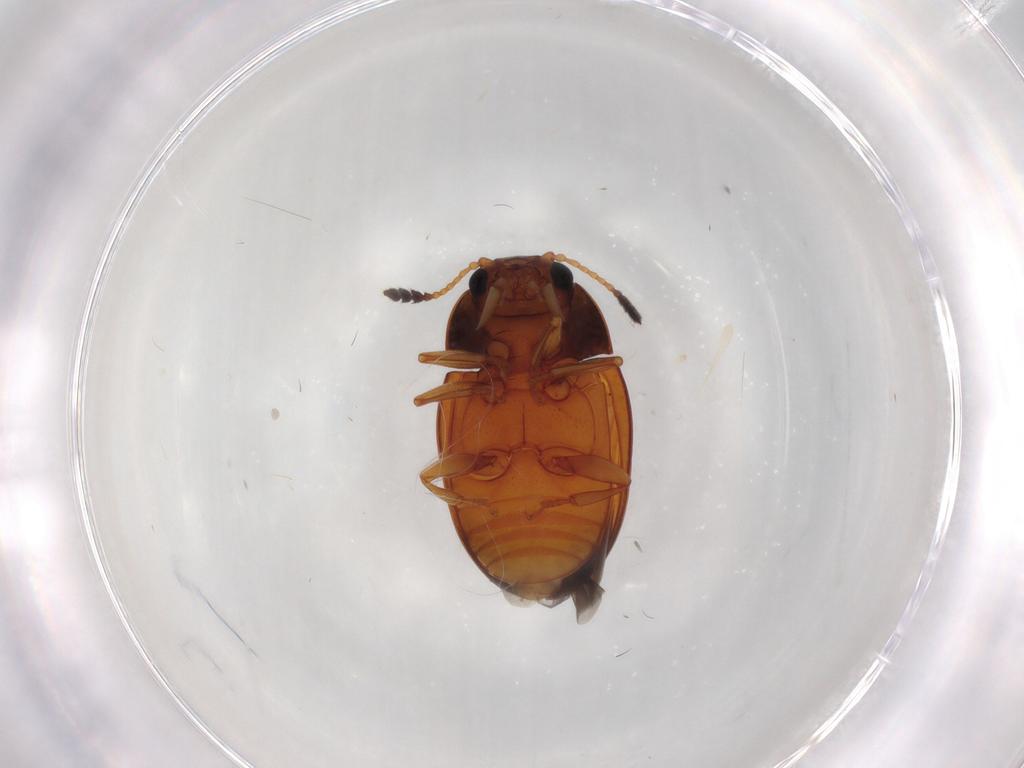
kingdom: Animalia
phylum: Arthropoda
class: Insecta
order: Coleoptera
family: Erotylidae
